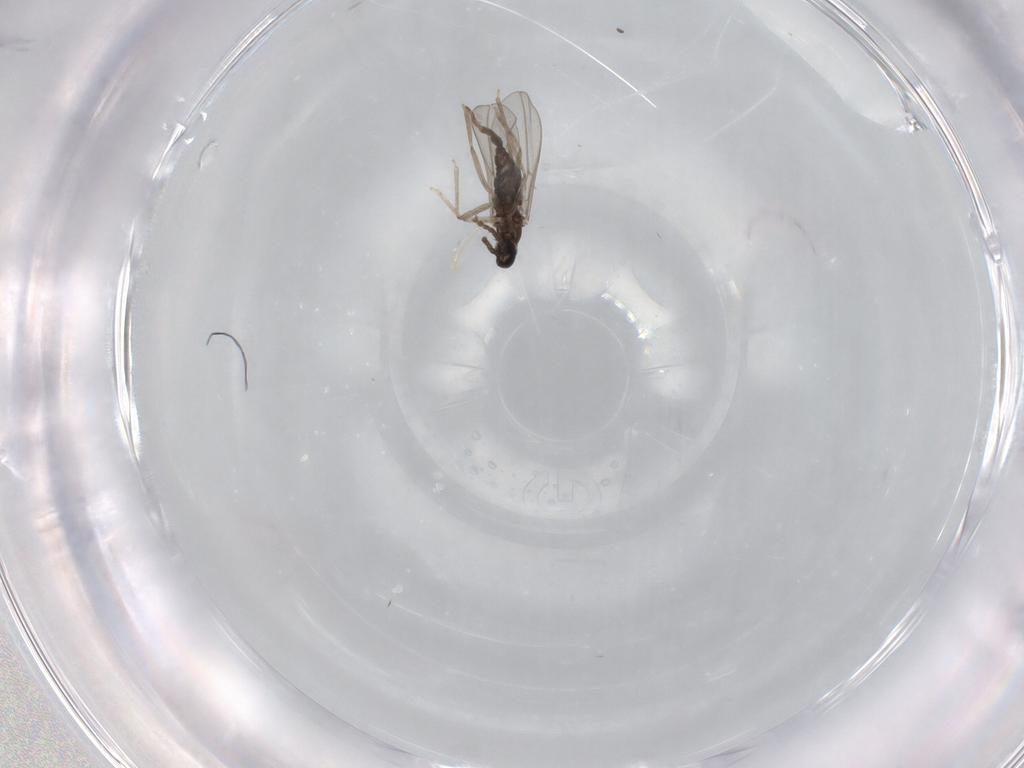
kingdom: Animalia
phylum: Arthropoda
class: Insecta
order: Diptera
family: Cecidomyiidae
